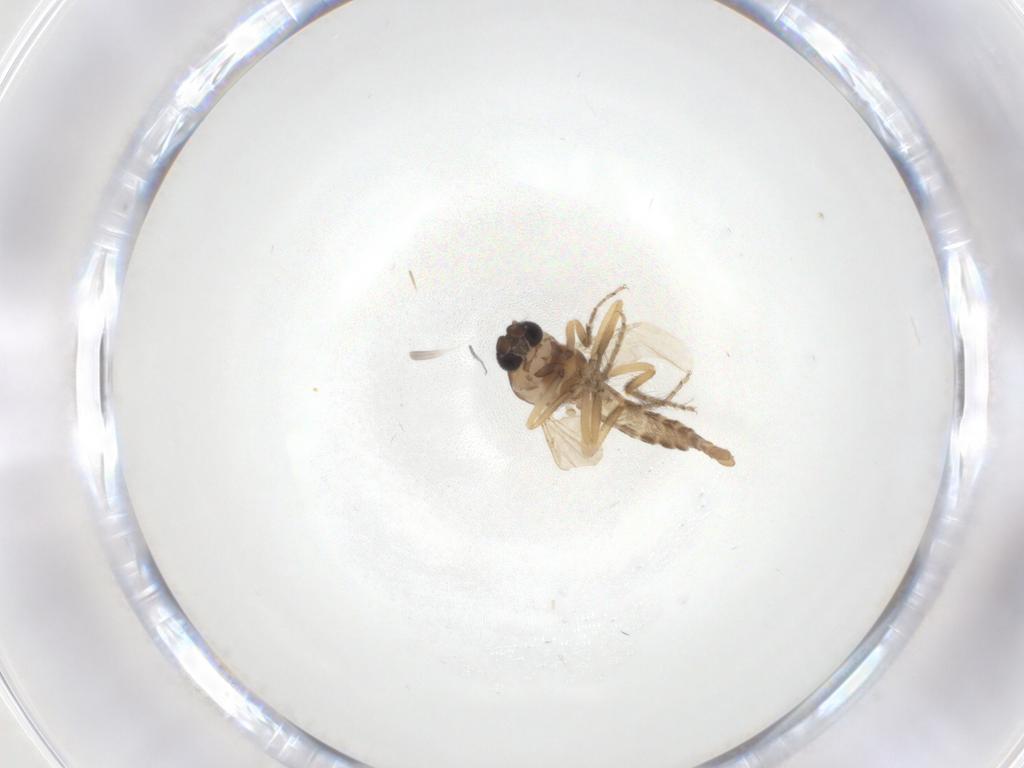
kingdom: Animalia
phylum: Arthropoda
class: Insecta
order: Diptera
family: Ceratopogonidae
